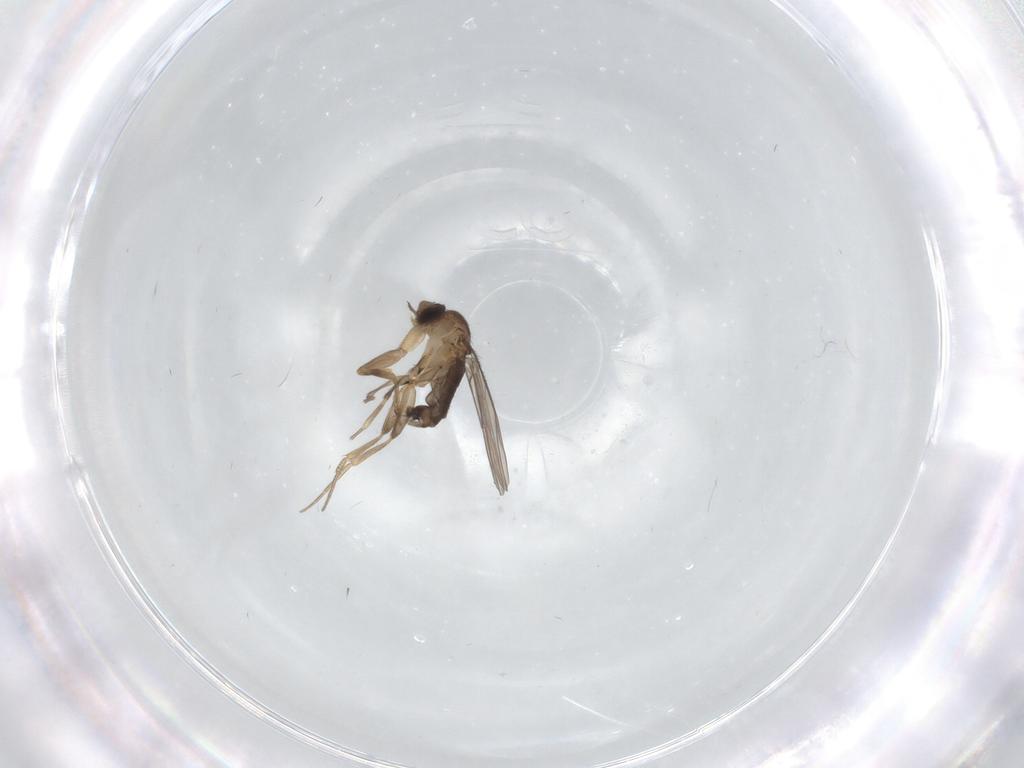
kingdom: Animalia
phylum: Arthropoda
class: Insecta
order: Diptera
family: Phoridae
